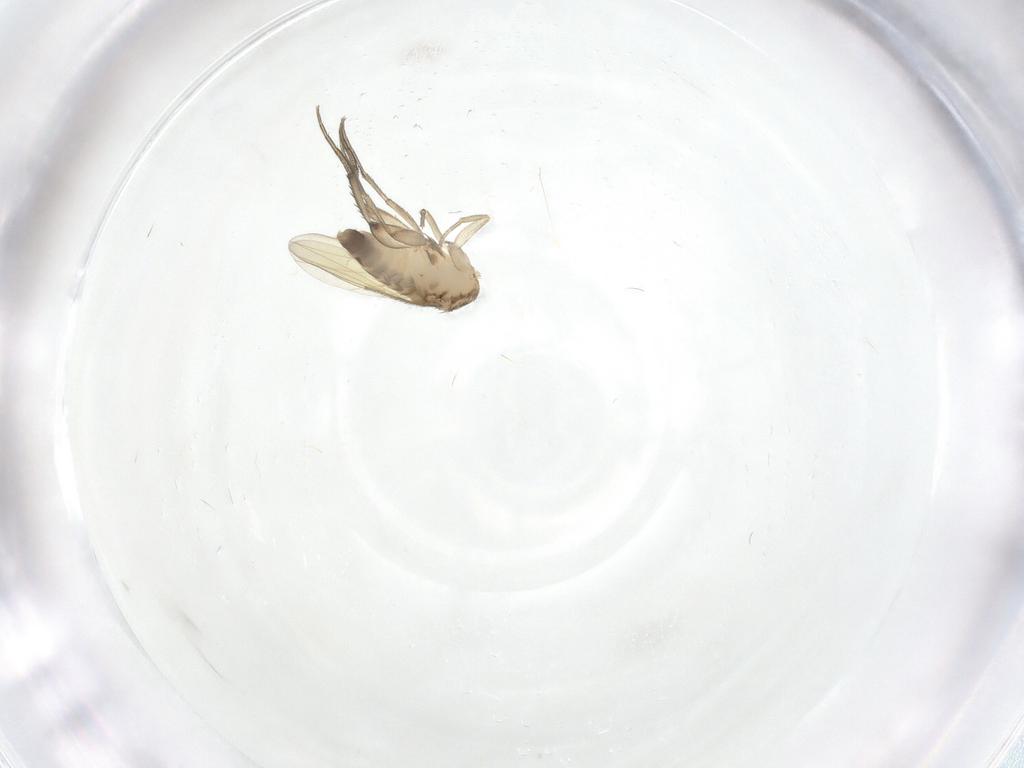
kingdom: Animalia
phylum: Arthropoda
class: Insecta
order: Diptera
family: Phoridae
